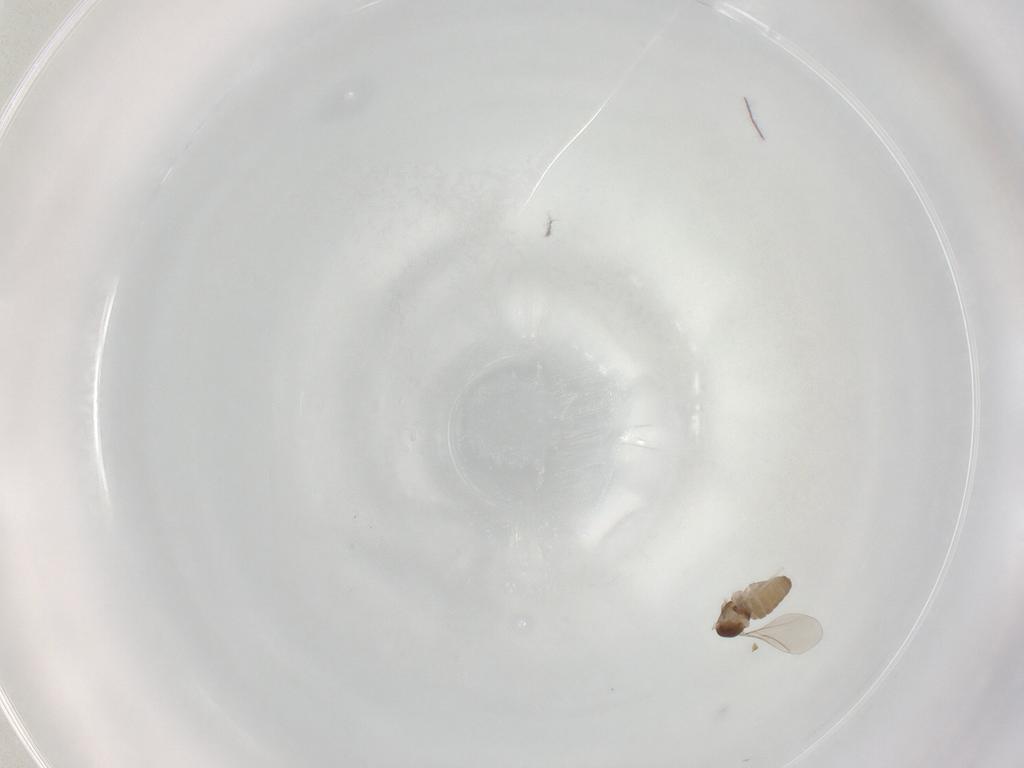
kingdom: Animalia
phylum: Arthropoda
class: Insecta
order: Diptera
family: Cecidomyiidae
